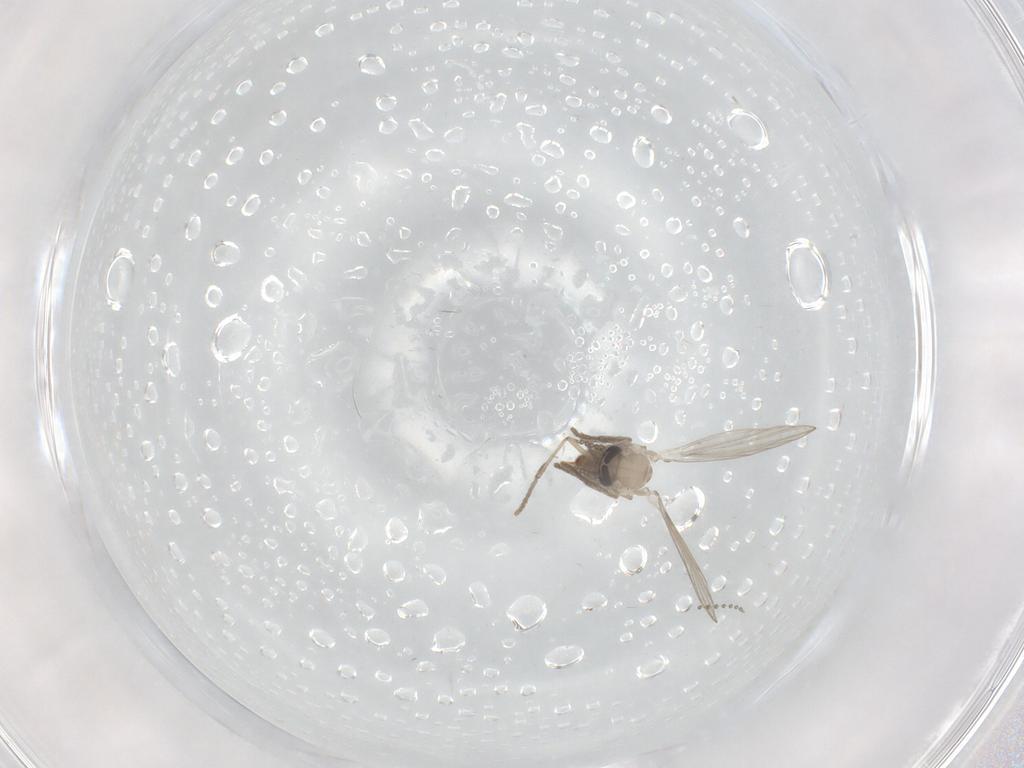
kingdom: Animalia
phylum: Arthropoda
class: Insecta
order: Diptera
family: Psychodidae
